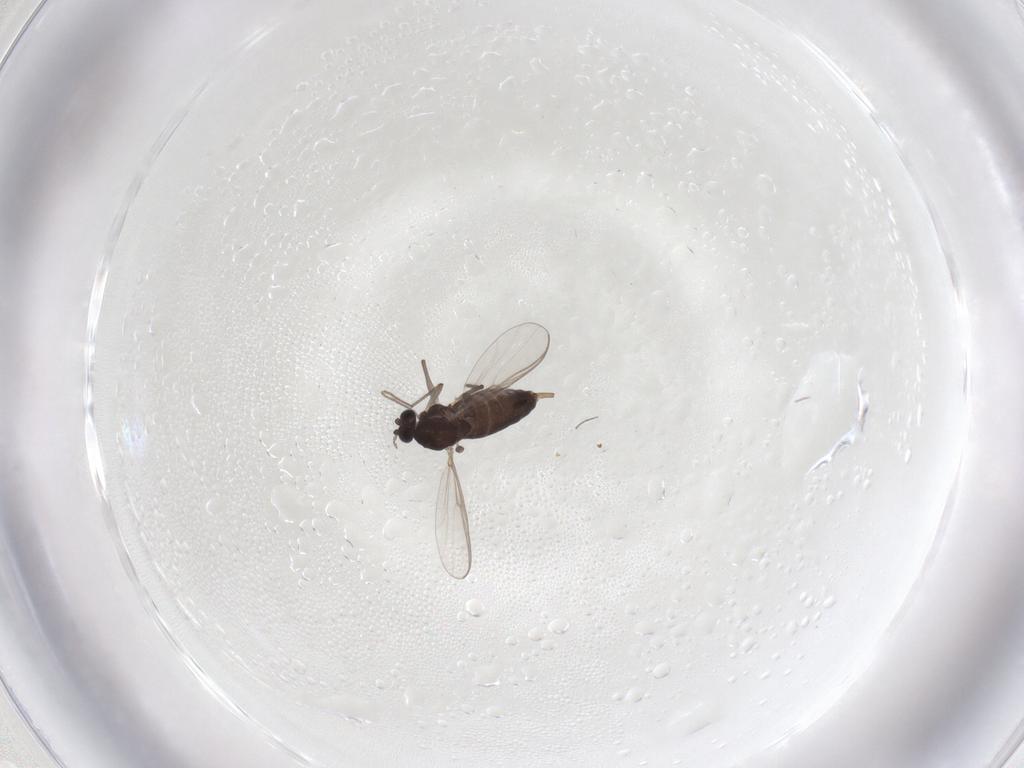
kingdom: Animalia
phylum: Arthropoda
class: Insecta
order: Diptera
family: Chironomidae
